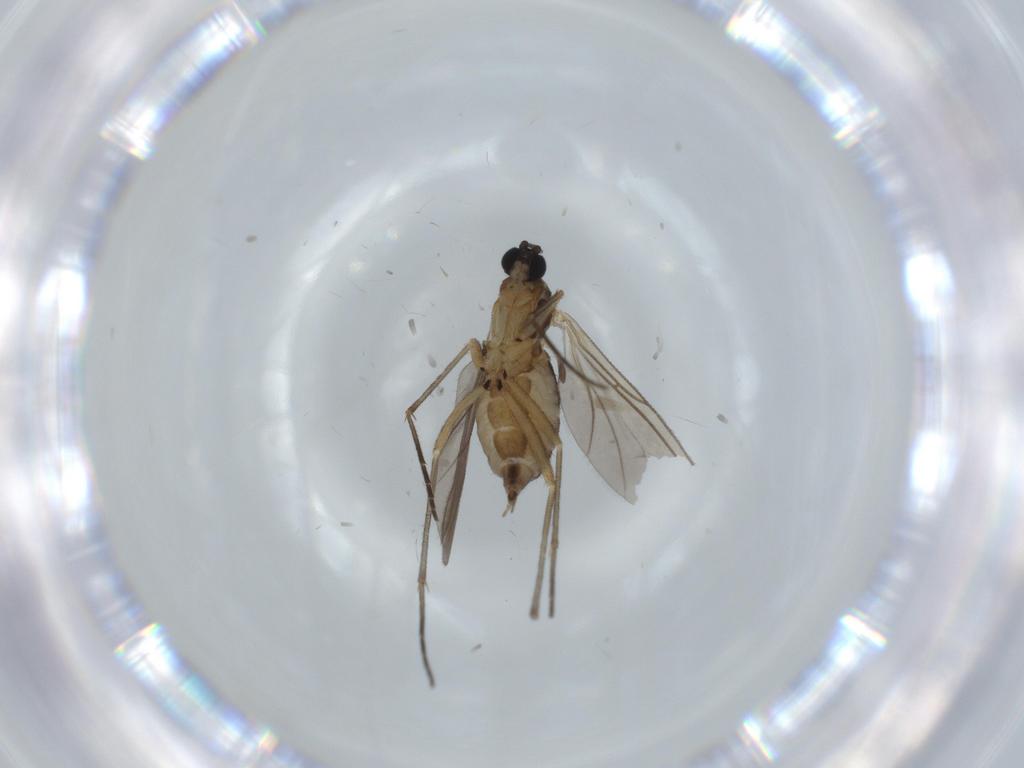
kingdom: Animalia
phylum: Arthropoda
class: Insecta
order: Diptera
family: Milichiidae
